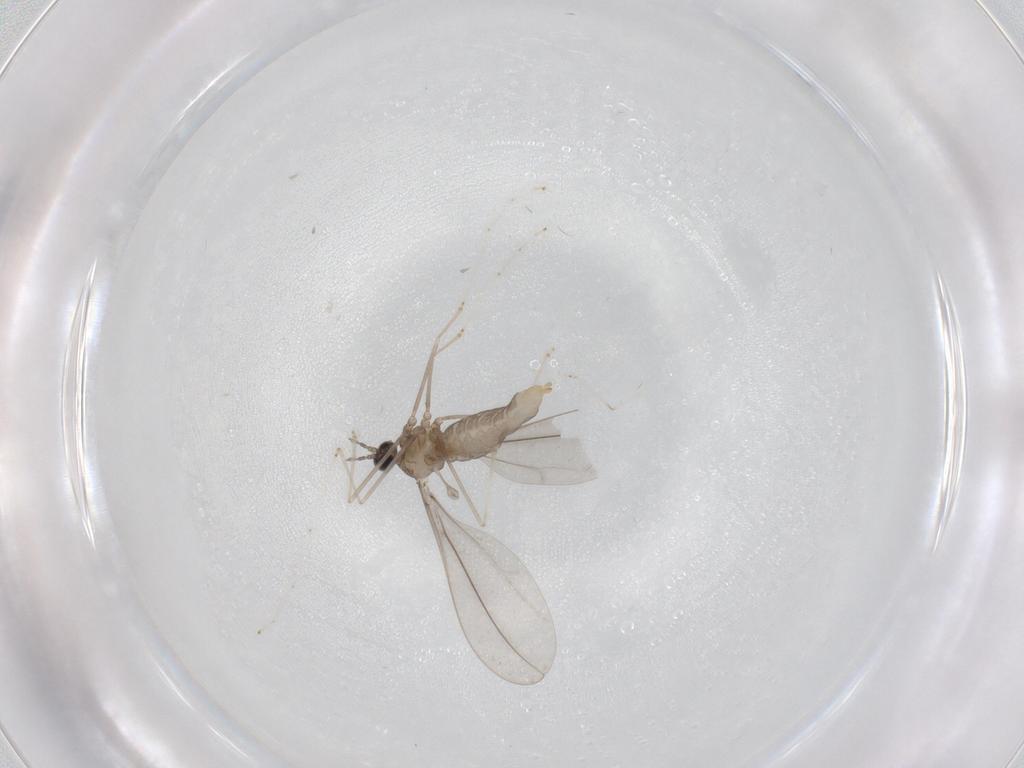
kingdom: Animalia
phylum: Arthropoda
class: Insecta
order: Diptera
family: Cecidomyiidae
